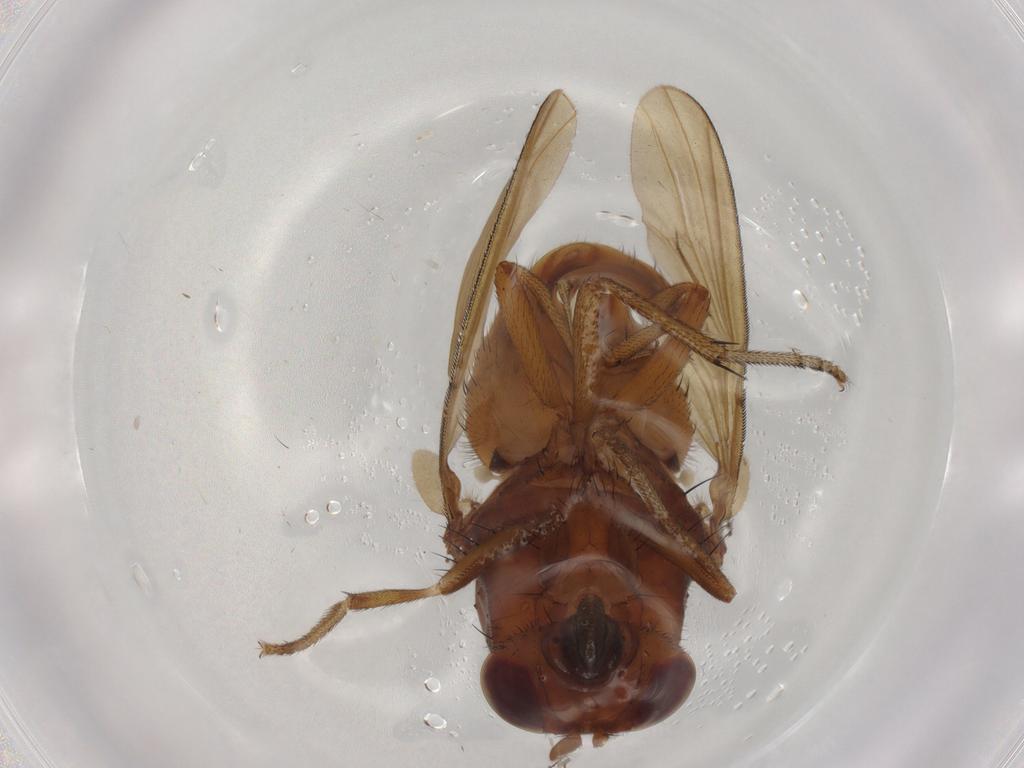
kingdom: Animalia
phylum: Arthropoda
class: Insecta
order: Diptera
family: Lauxaniidae
